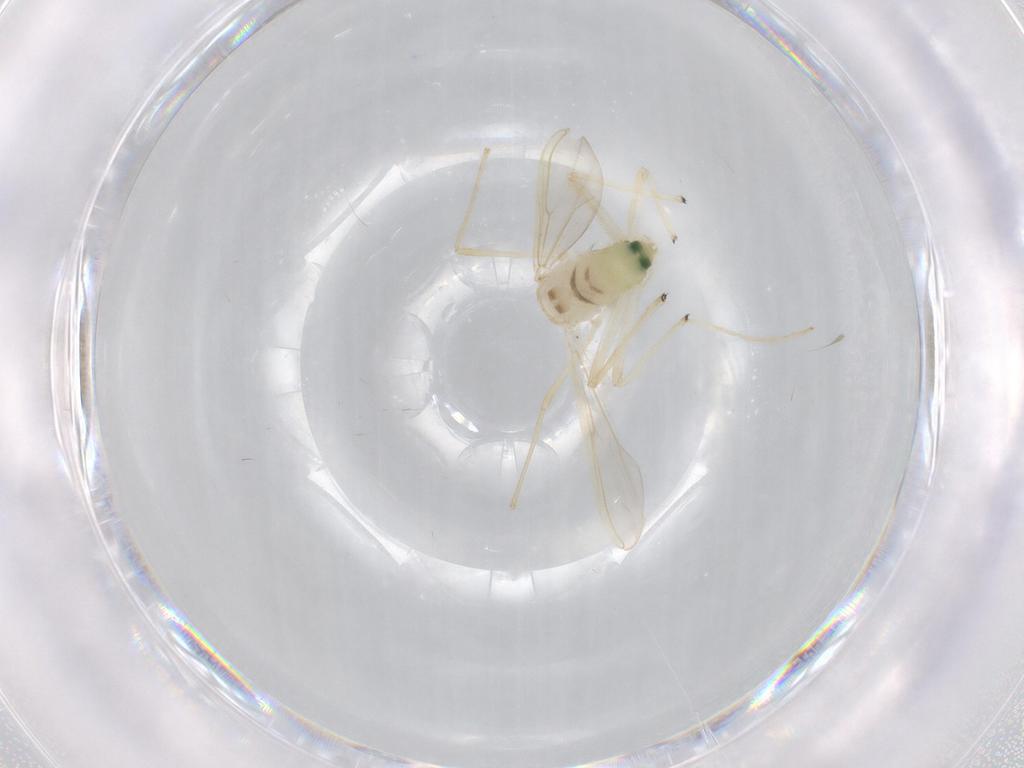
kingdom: Animalia
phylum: Arthropoda
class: Insecta
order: Diptera
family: Chironomidae
